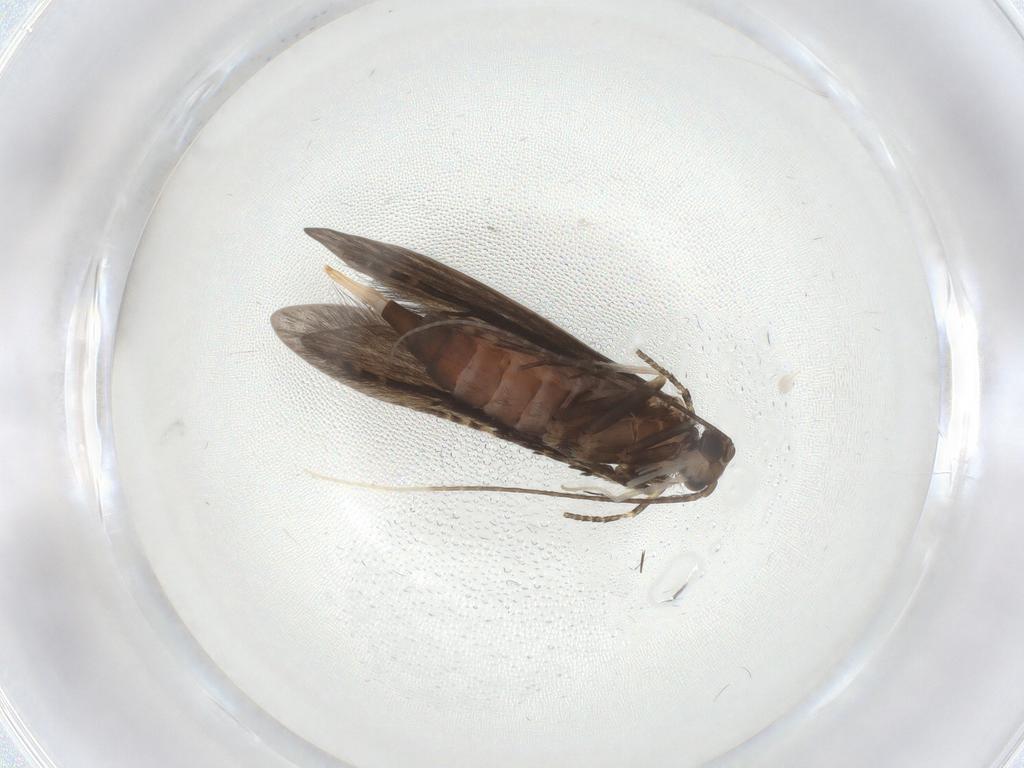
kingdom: Animalia
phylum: Arthropoda
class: Insecta
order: Trichoptera
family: Xiphocentronidae
